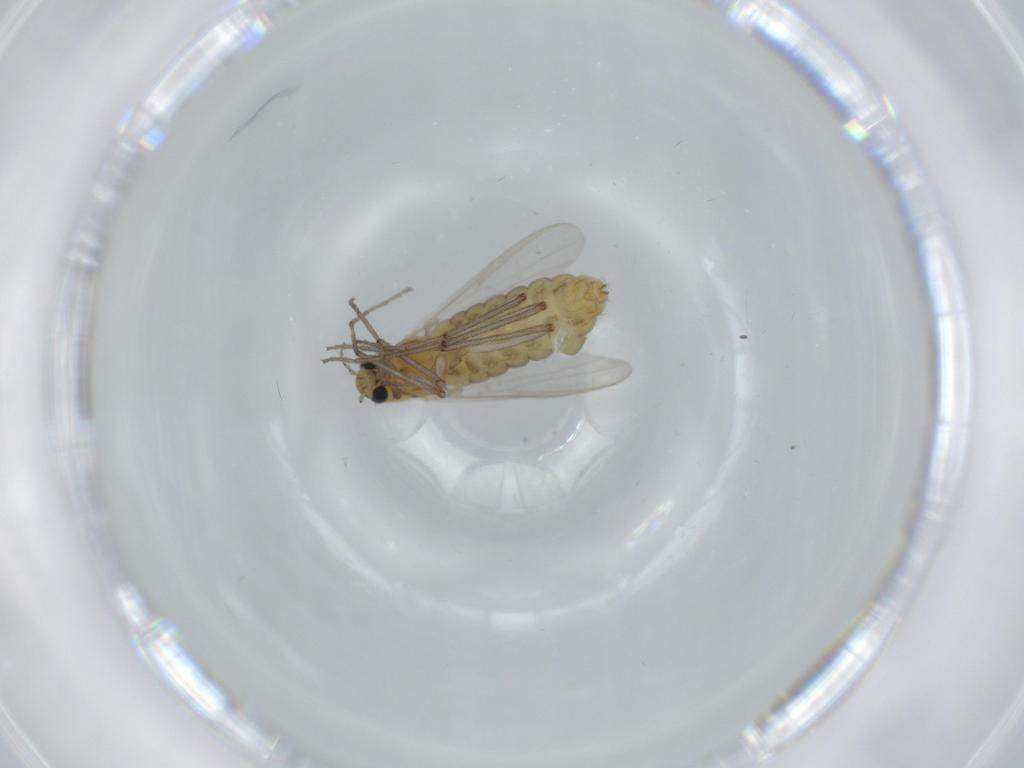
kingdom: Animalia
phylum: Arthropoda
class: Insecta
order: Diptera
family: Chironomidae
